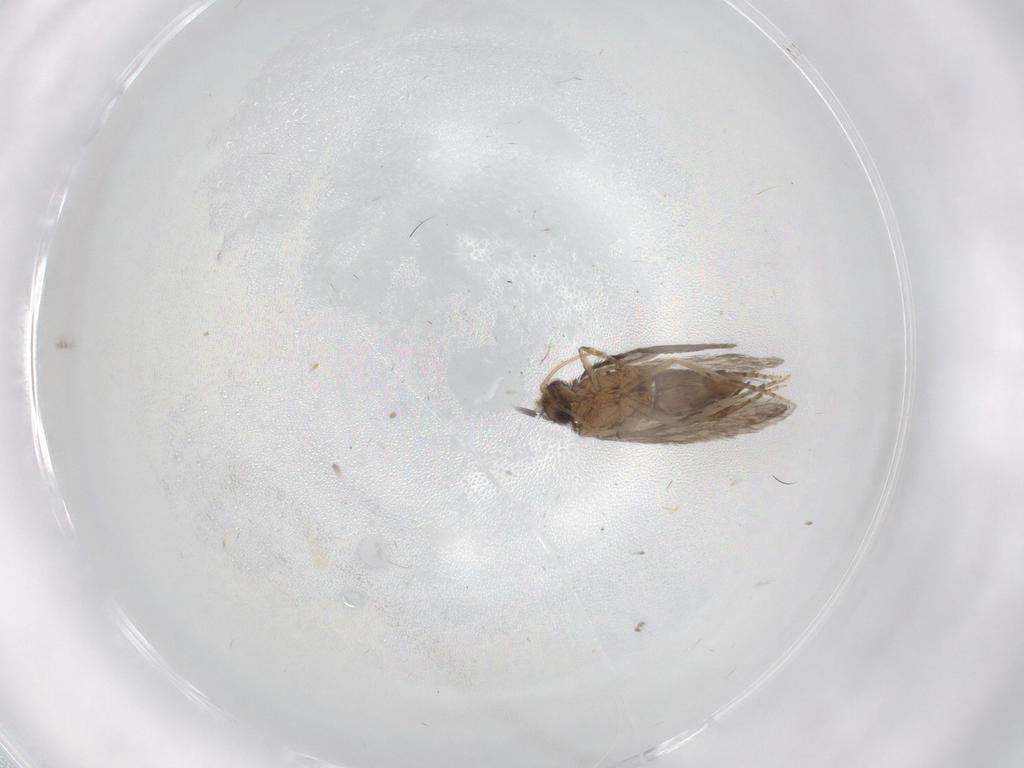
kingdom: Animalia
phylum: Arthropoda
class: Insecta
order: Trichoptera
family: Hydroptilidae
